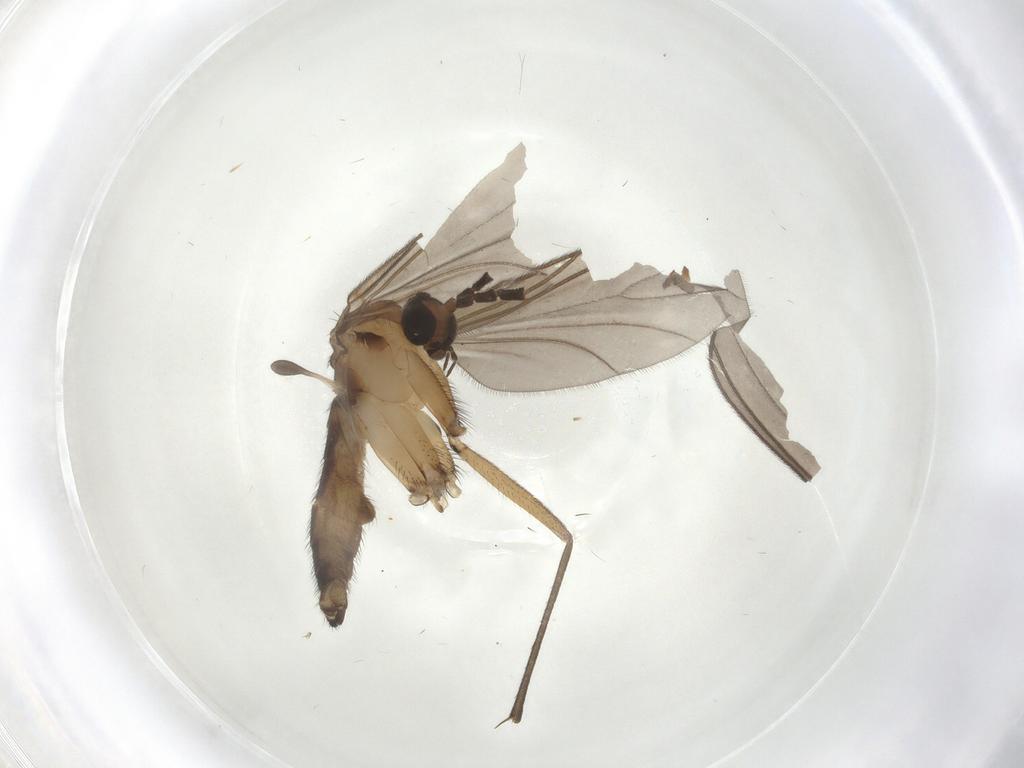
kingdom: Animalia
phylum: Arthropoda
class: Insecta
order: Diptera
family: Sciaridae
